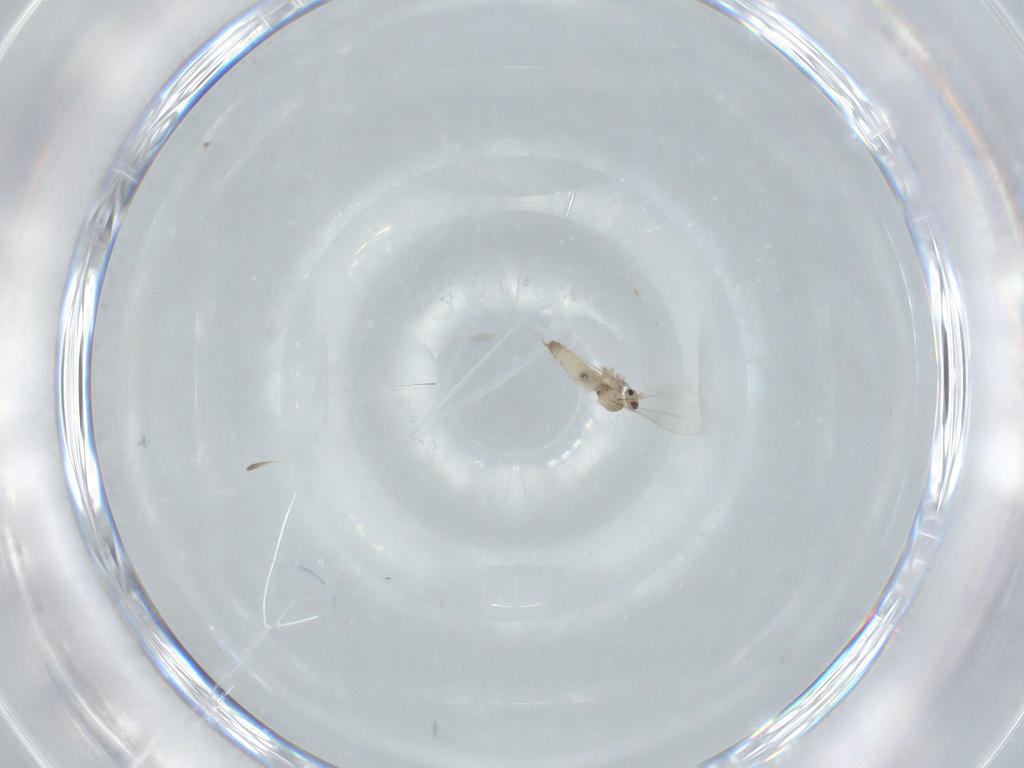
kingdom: Animalia
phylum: Arthropoda
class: Insecta
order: Diptera
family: Cecidomyiidae
